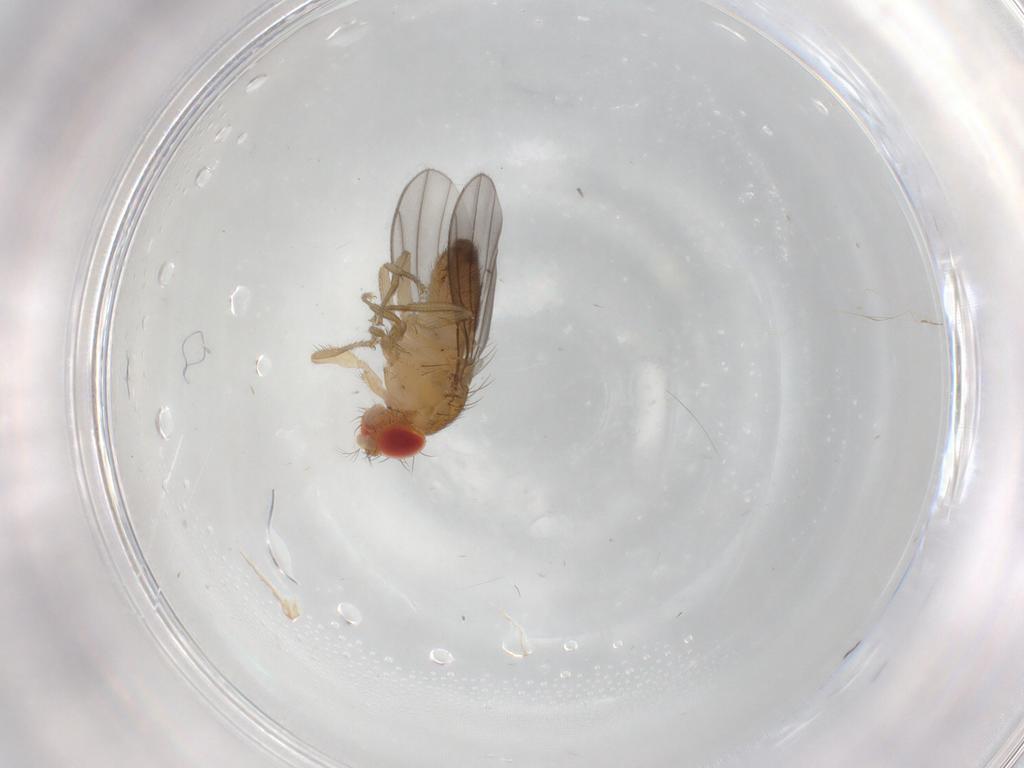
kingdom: Animalia
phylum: Arthropoda
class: Insecta
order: Diptera
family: Drosophilidae
